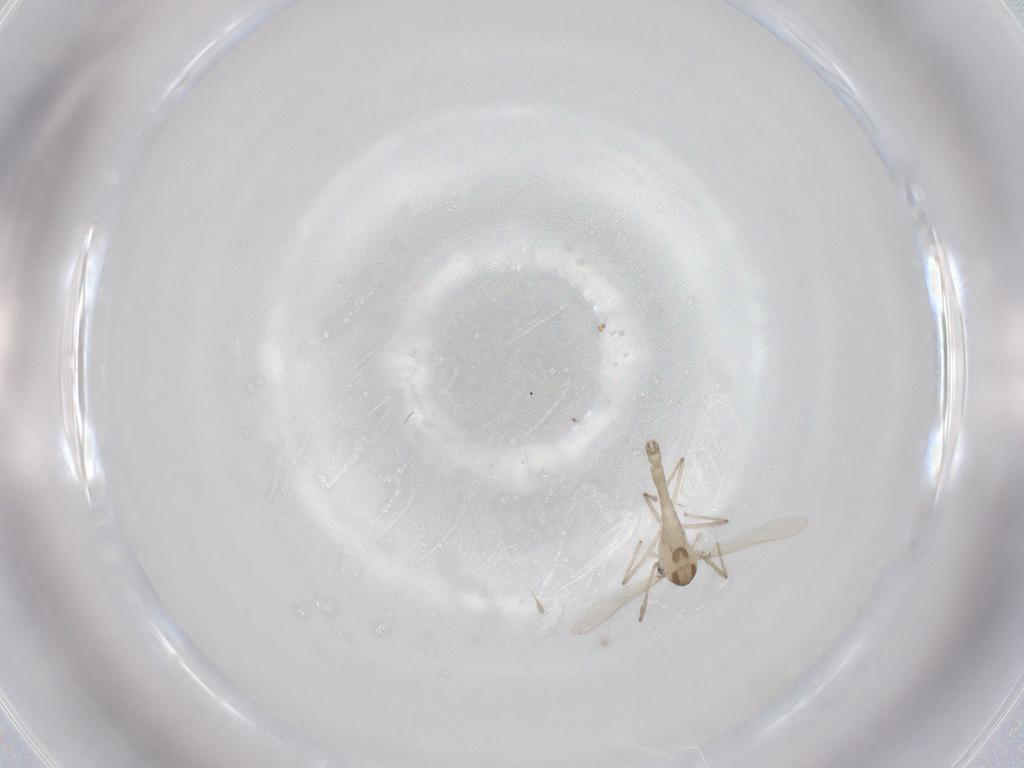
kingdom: Animalia
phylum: Arthropoda
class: Insecta
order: Diptera
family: Chironomidae
